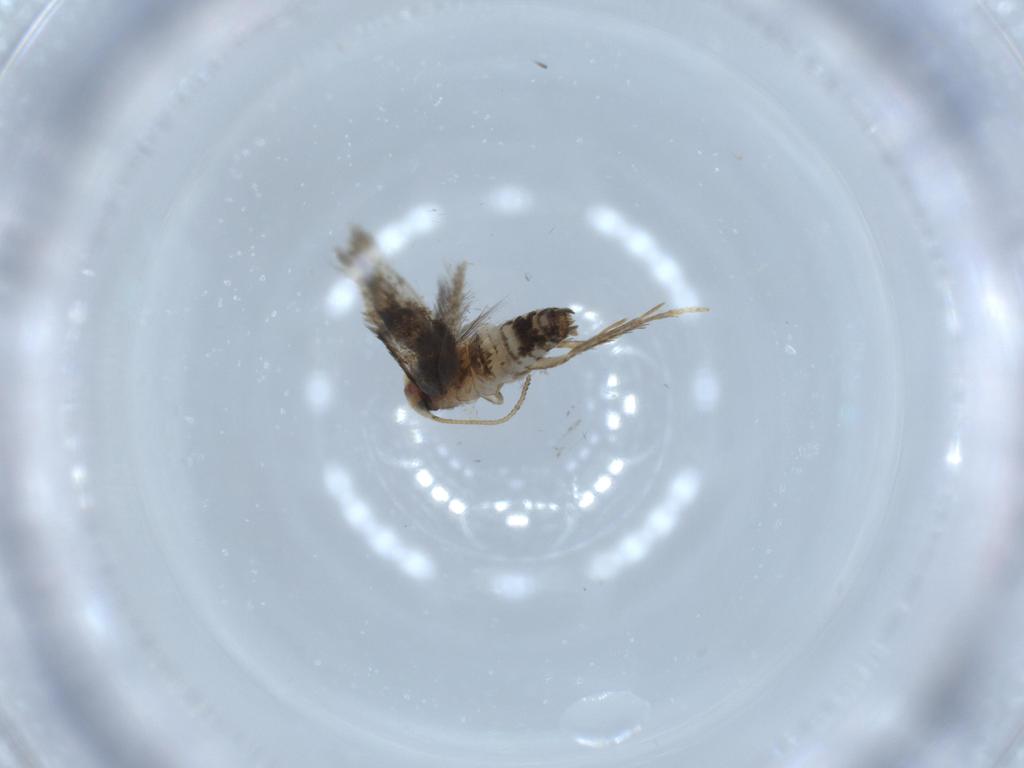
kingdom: Animalia
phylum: Arthropoda
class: Insecta
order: Lepidoptera
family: Nepticulidae
